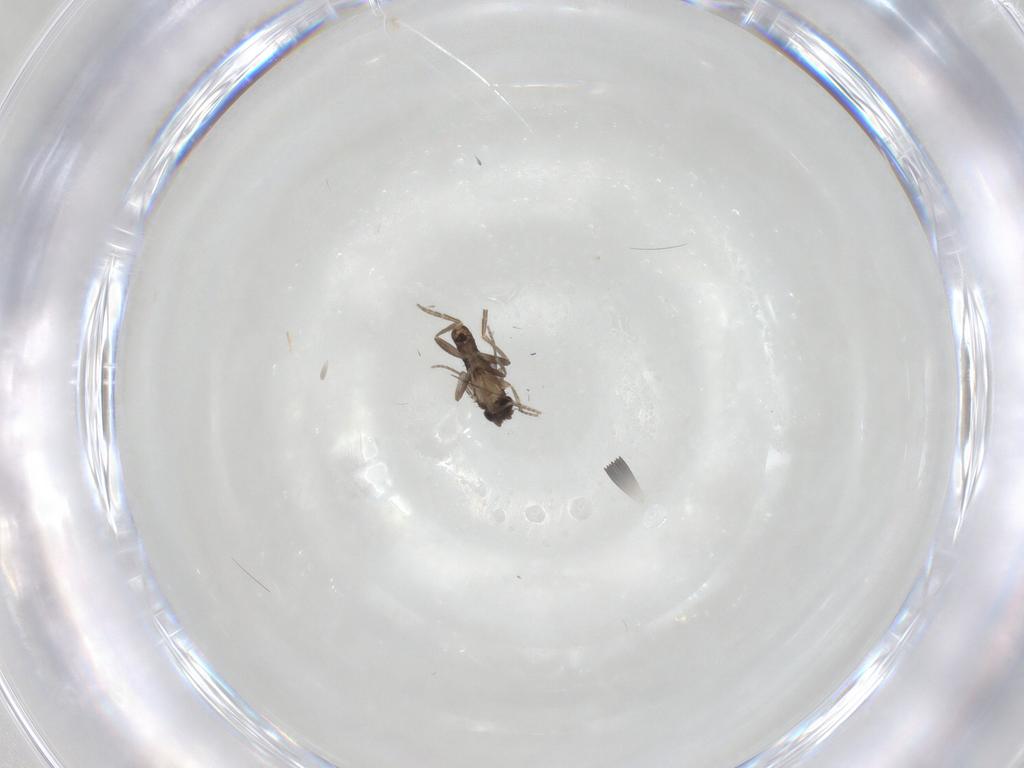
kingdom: Animalia
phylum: Arthropoda
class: Insecta
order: Diptera
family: Phoridae
